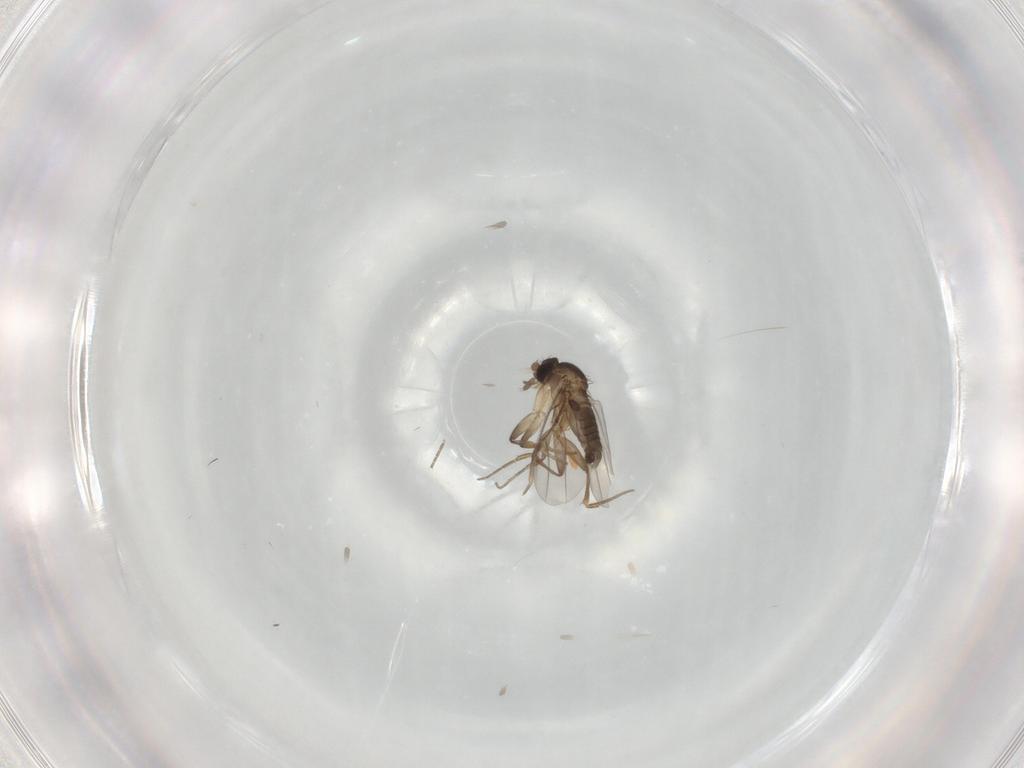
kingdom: Animalia
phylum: Arthropoda
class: Insecta
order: Diptera
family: Phoridae
